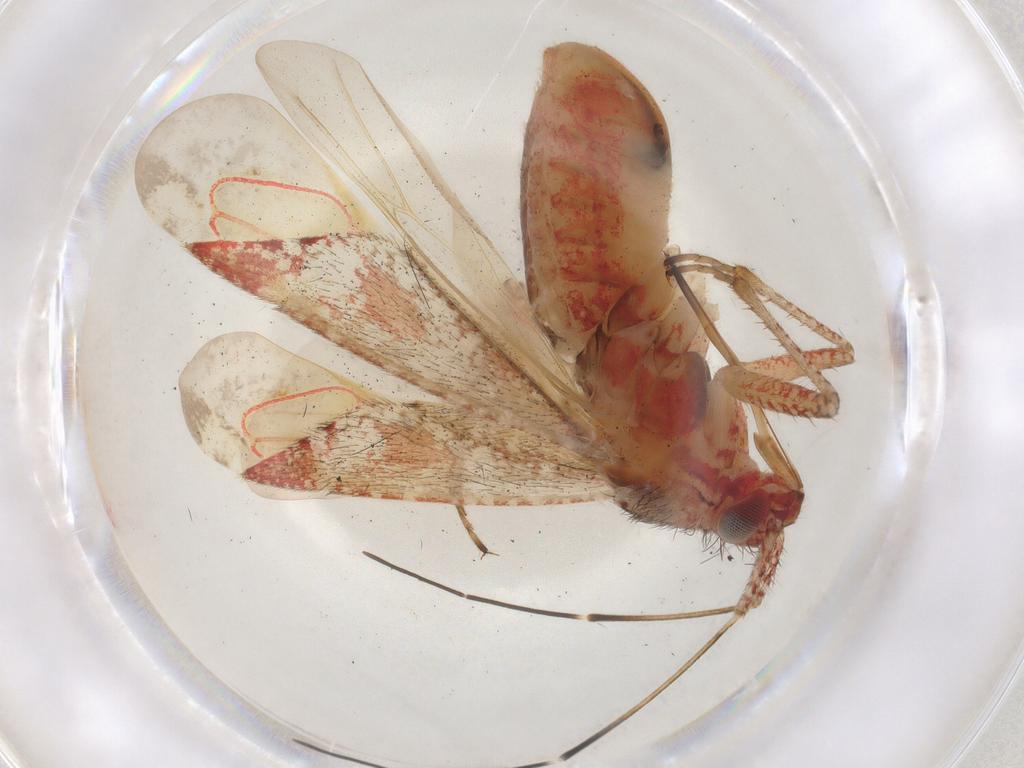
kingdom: Animalia
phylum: Arthropoda
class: Insecta
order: Hemiptera
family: Miridae
